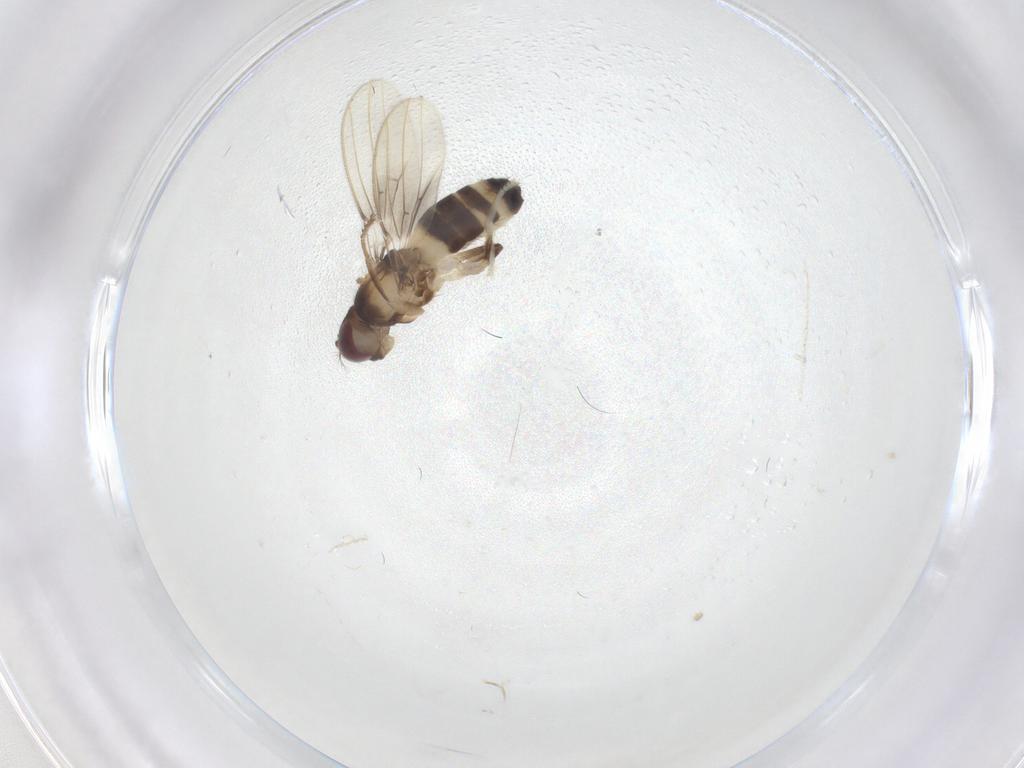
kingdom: Animalia
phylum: Arthropoda
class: Insecta
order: Diptera
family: Periscelididae
